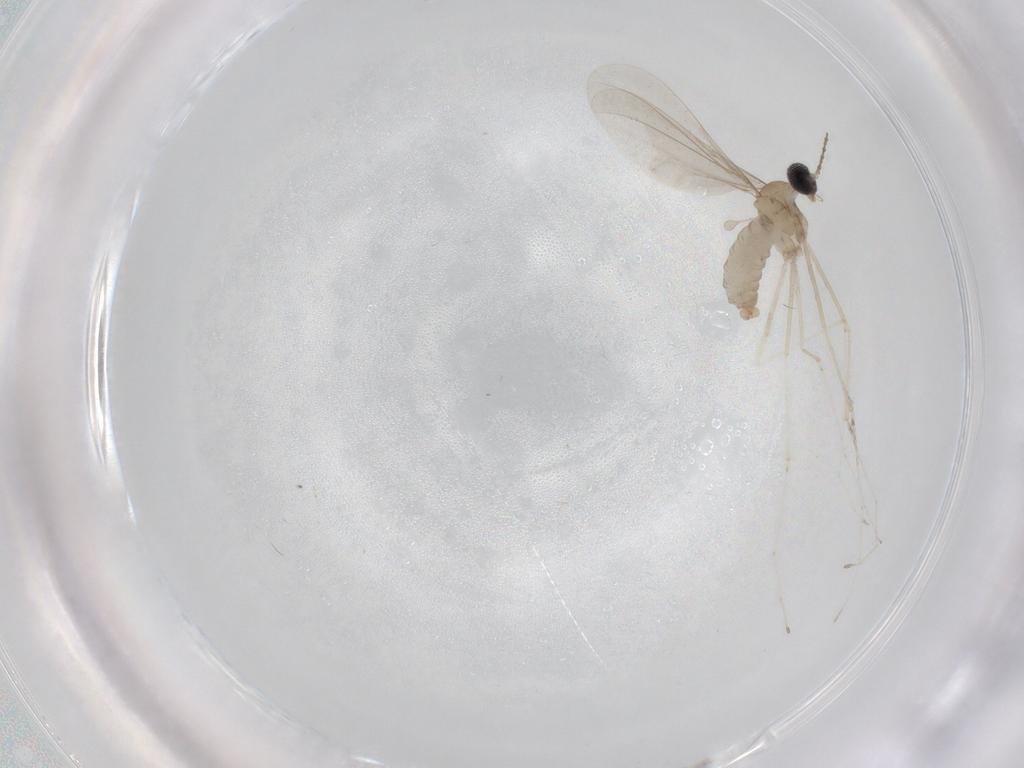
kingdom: Animalia
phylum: Arthropoda
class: Insecta
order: Diptera
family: Cecidomyiidae
